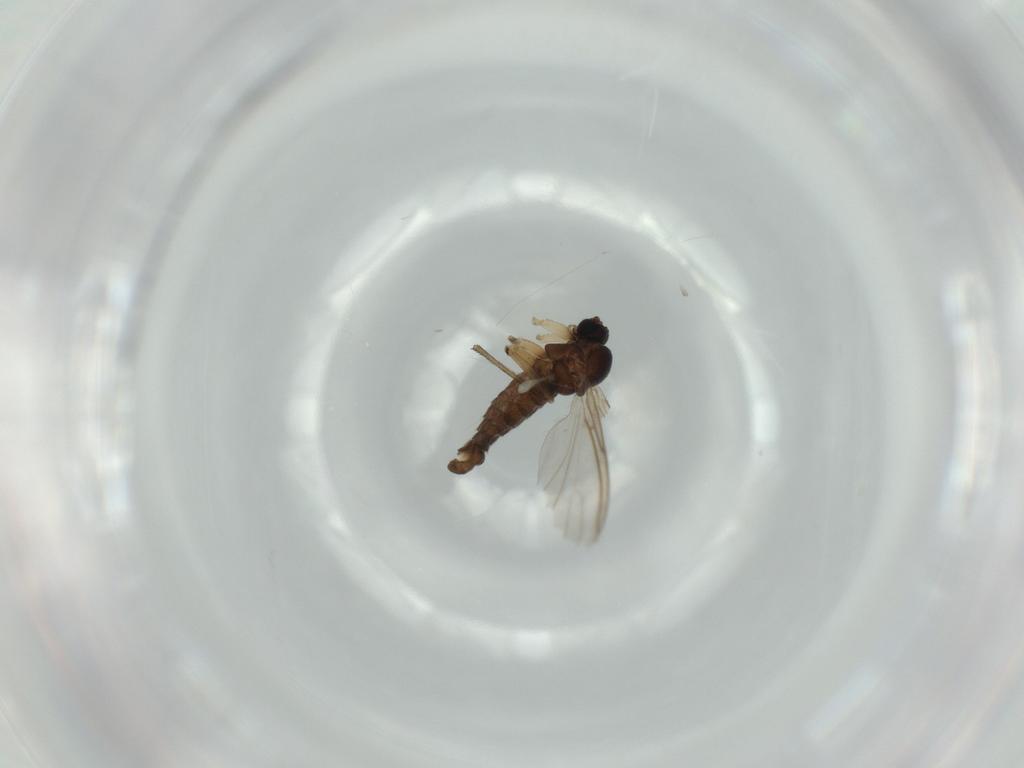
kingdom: Animalia
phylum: Arthropoda
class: Insecta
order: Diptera
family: Sciaridae
